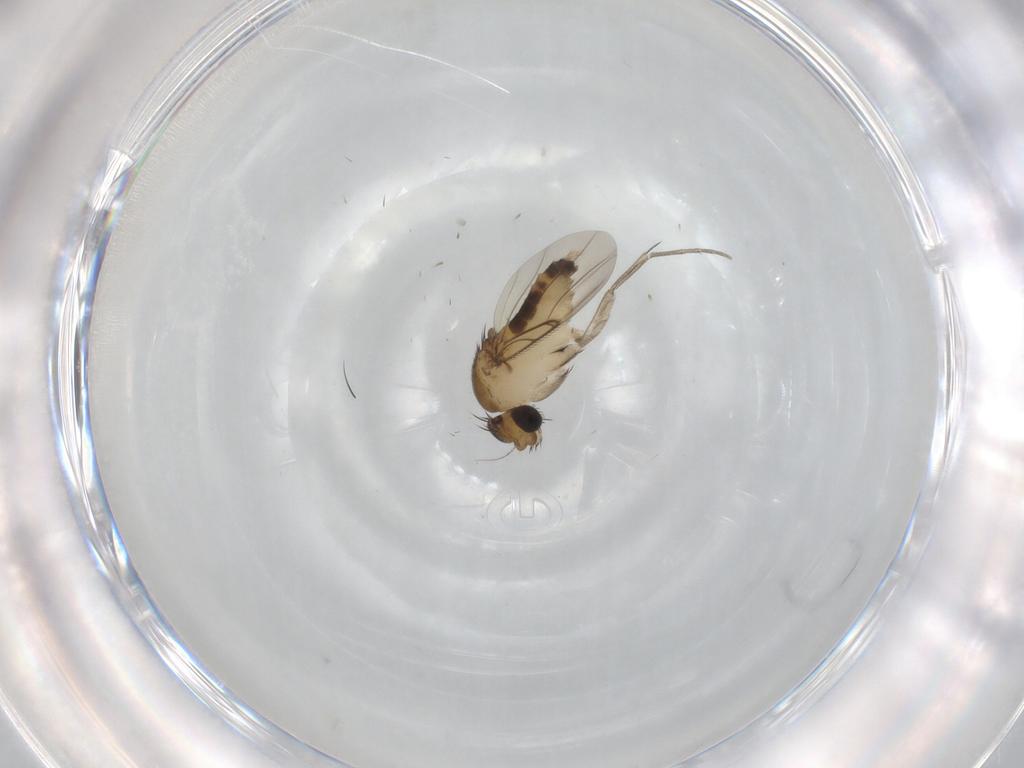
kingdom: Animalia
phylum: Arthropoda
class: Insecta
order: Diptera
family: Phoridae
